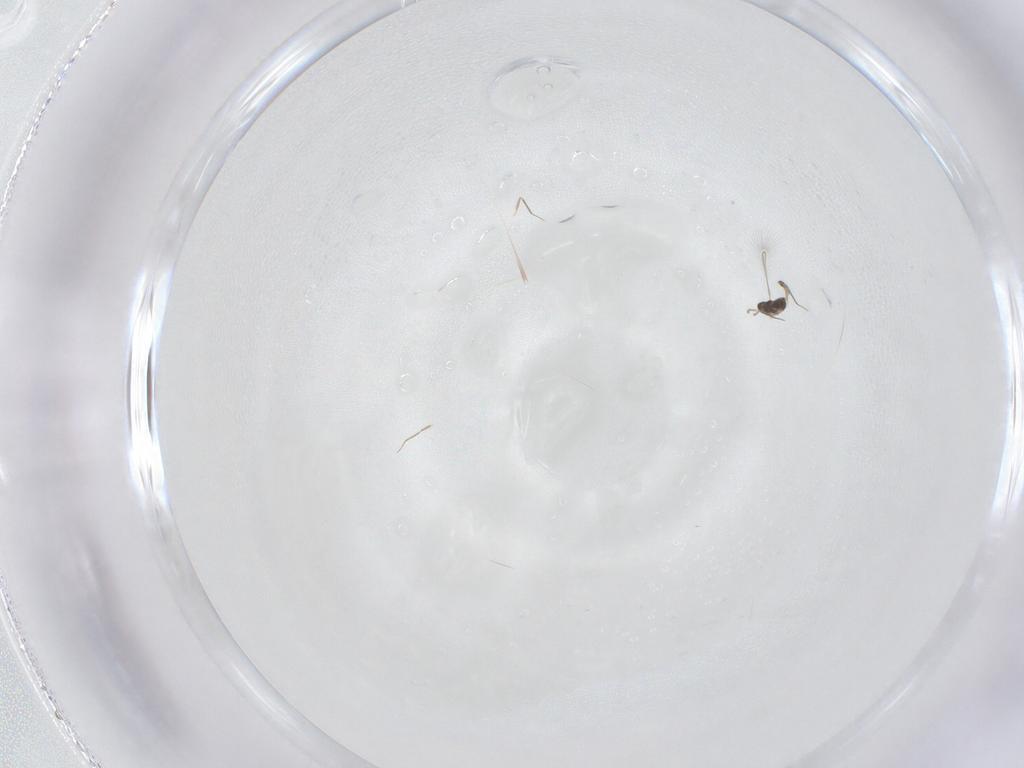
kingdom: Animalia
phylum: Arthropoda
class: Insecta
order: Hymenoptera
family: Mymaridae
